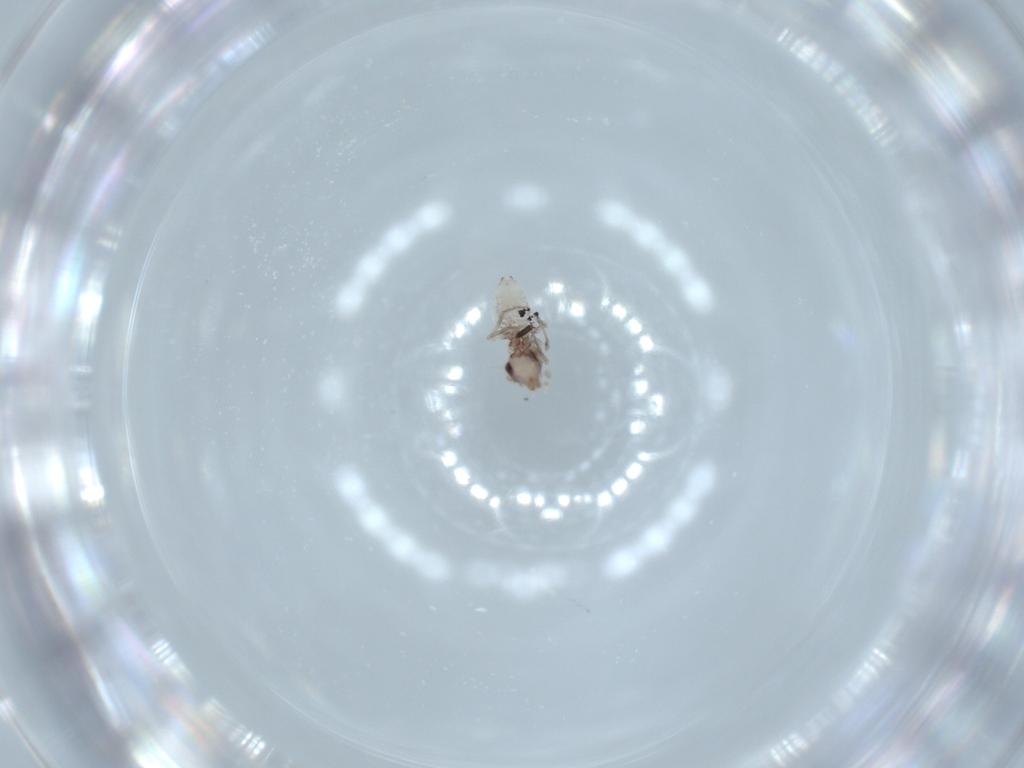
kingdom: Animalia
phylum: Arthropoda
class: Insecta
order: Psocodea
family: Lepidopsocidae
